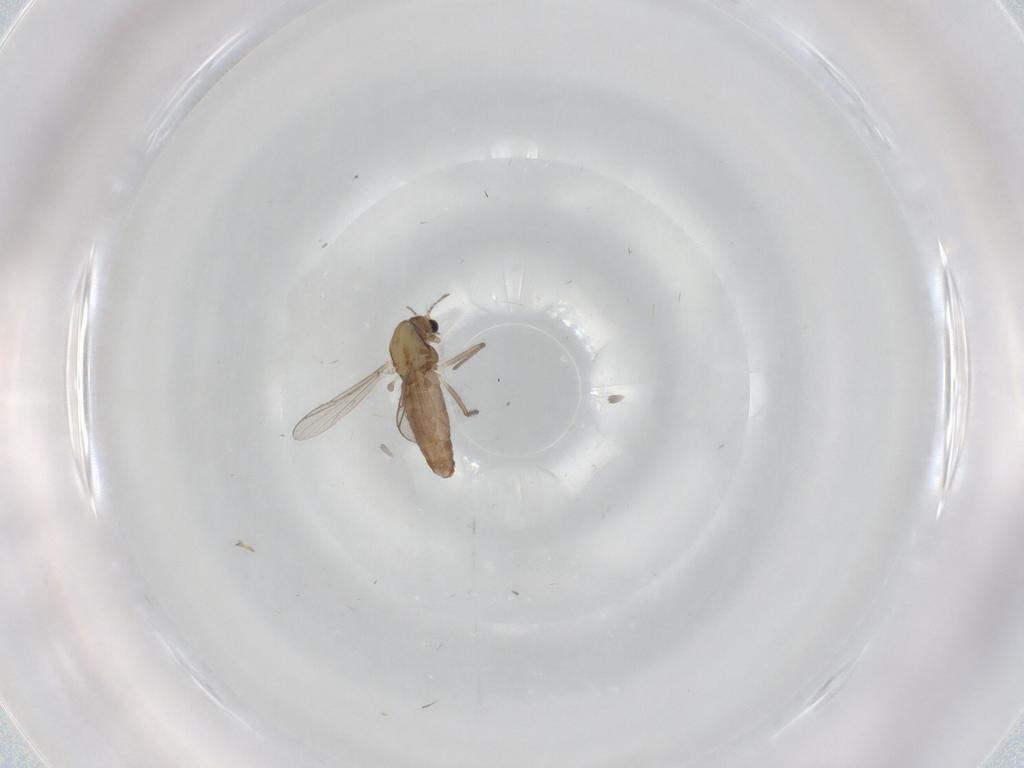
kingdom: Animalia
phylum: Arthropoda
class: Insecta
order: Diptera
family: Chironomidae
